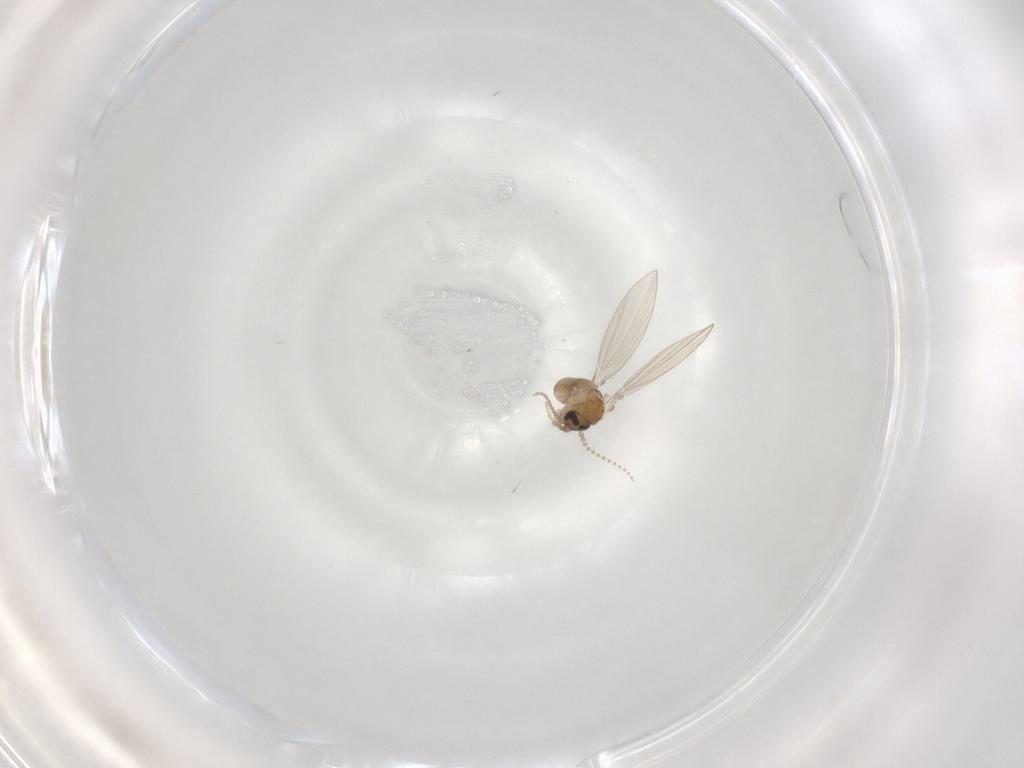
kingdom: Animalia
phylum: Arthropoda
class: Insecta
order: Diptera
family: Psychodidae
